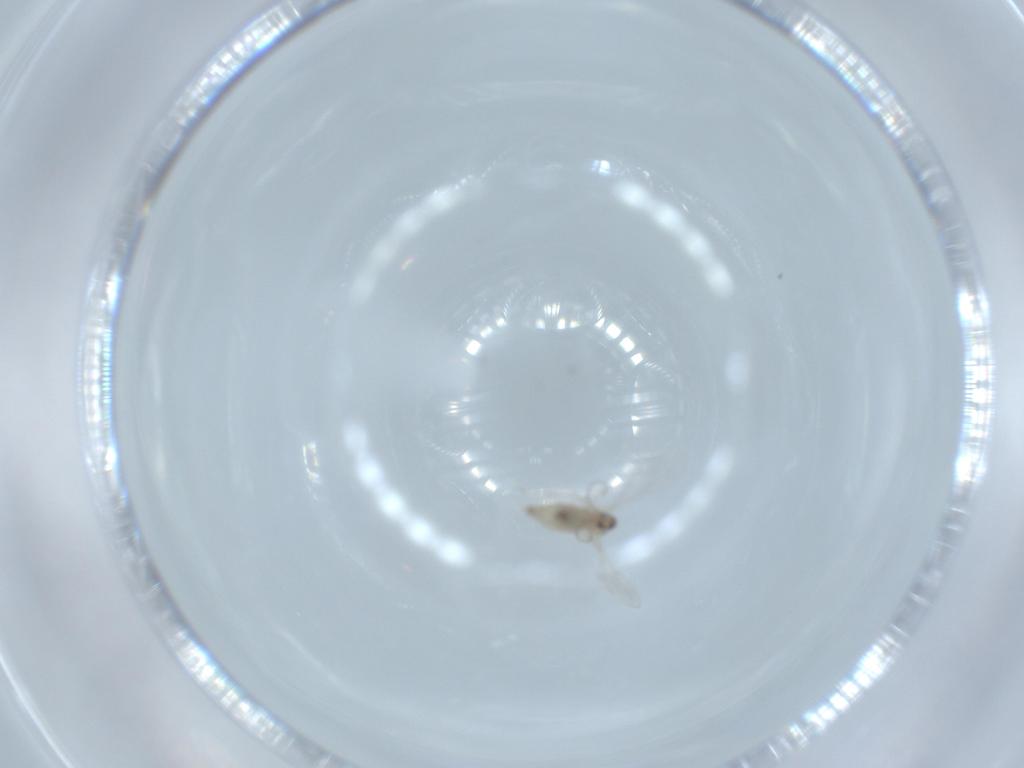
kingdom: Animalia
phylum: Arthropoda
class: Insecta
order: Diptera
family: Cecidomyiidae
